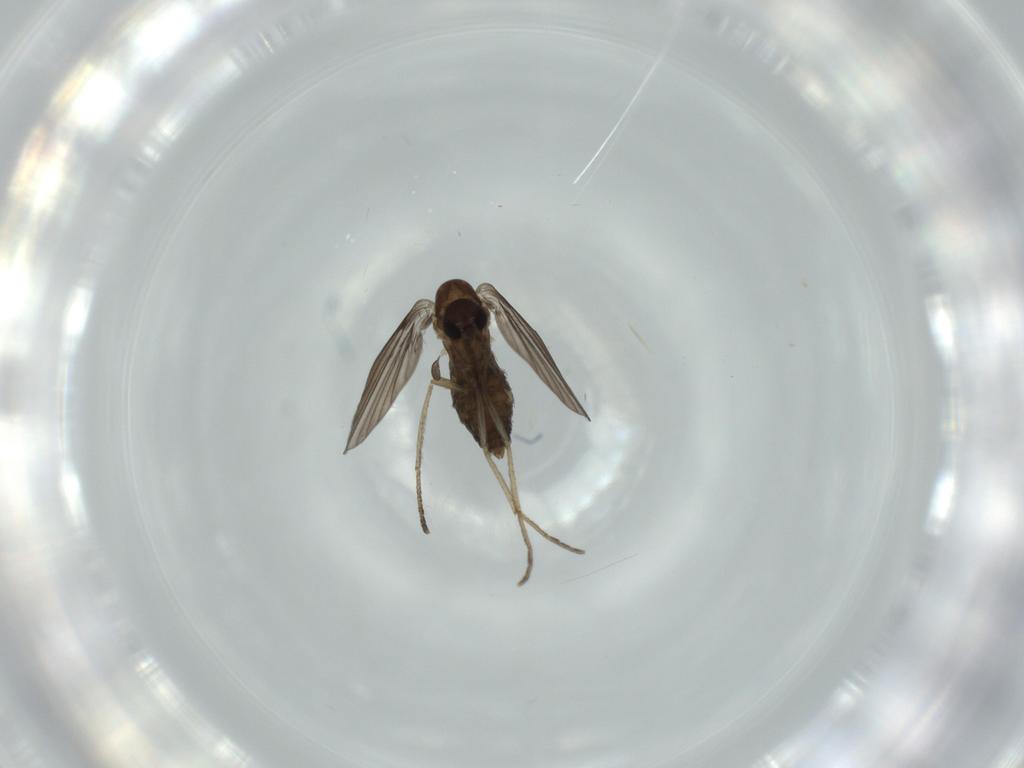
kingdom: Animalia
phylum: Arthropoda
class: Insecta
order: Diptera
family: Psychodidae
